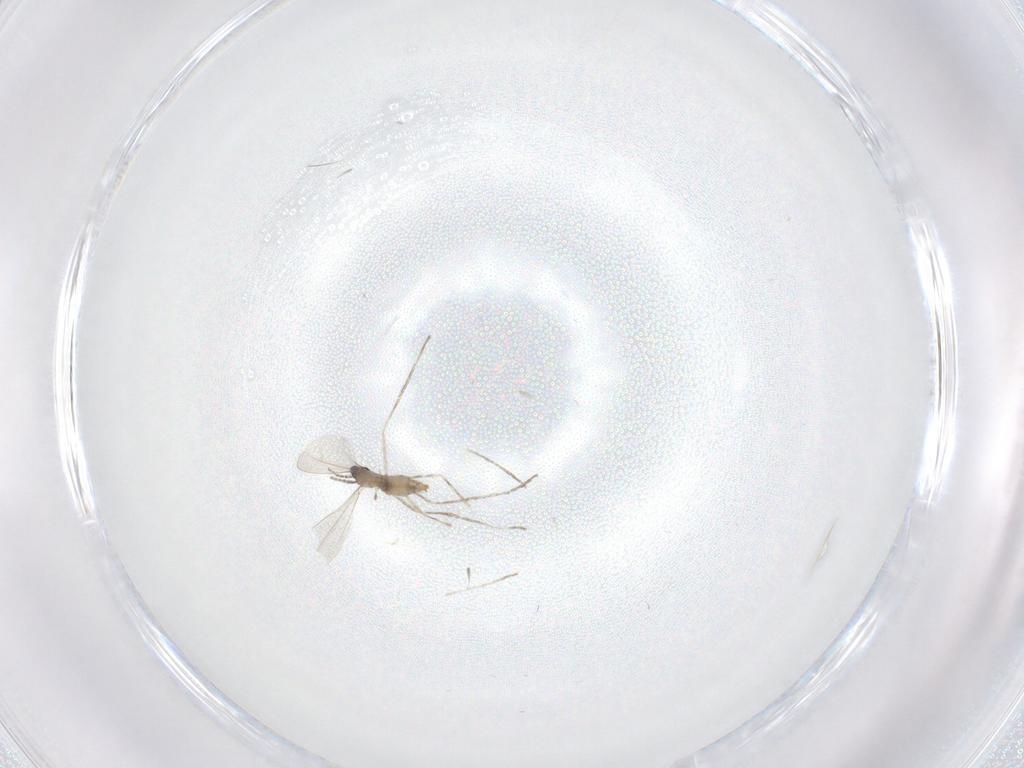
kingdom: Animalia
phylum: Arthropoda
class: Insecta
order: Diptera
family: Cecidomyiidae
